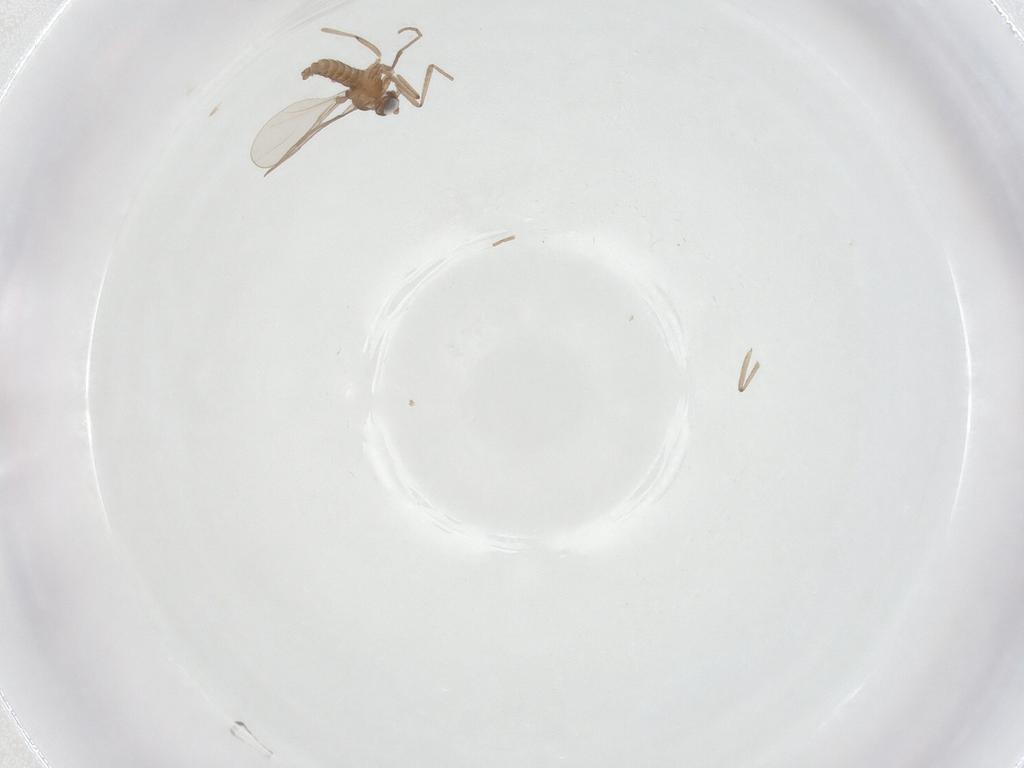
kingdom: Animalia
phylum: Arthropoda
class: Insecta
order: Diptera
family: Cecidomyiidae
